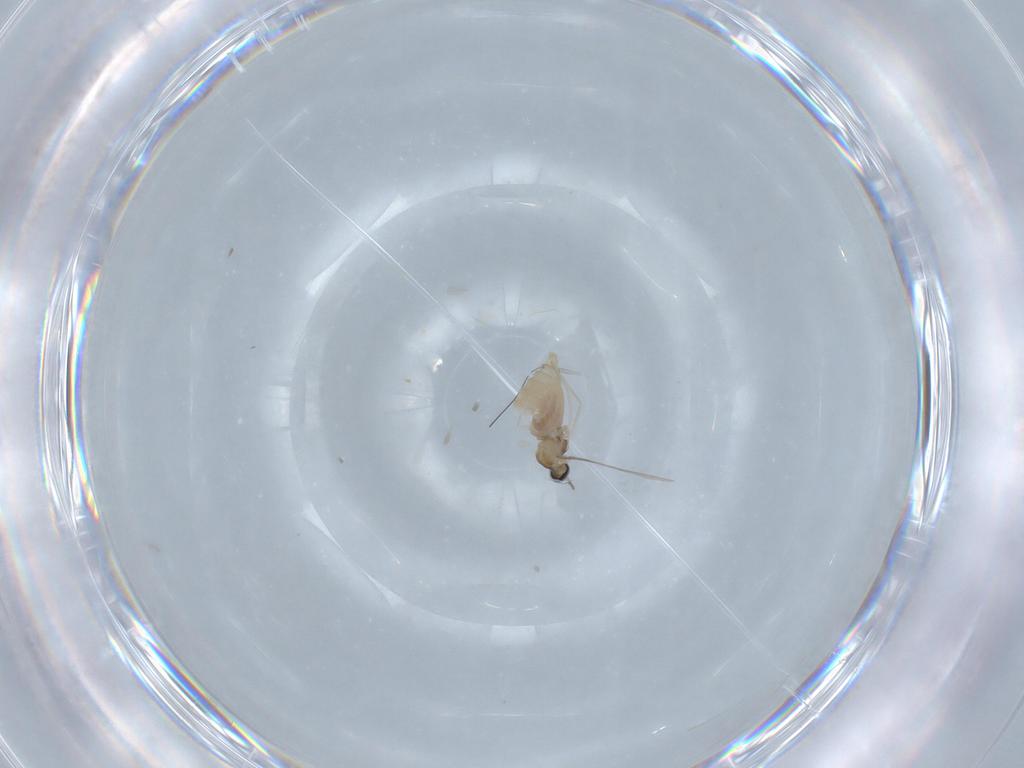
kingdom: Animalia
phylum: Arthropoda
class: Insecta
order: Diptera
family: Cecidomyiidae
